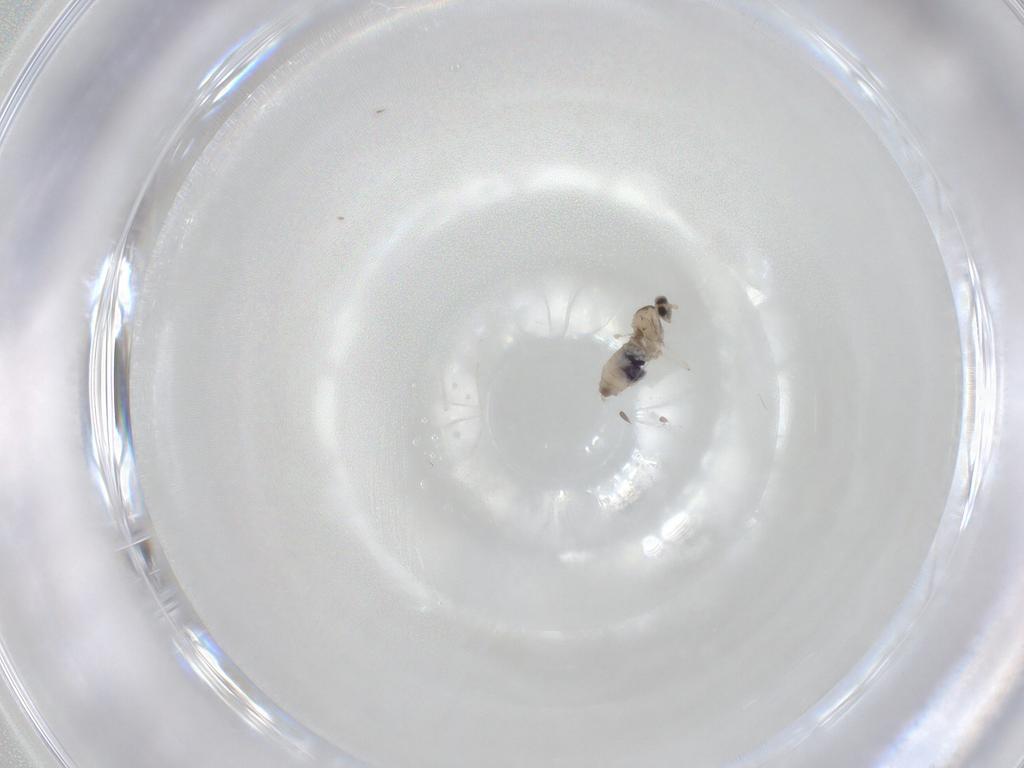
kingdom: Animalia
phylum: Arthropoda
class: Insecta
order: Diptera
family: Cecidomyiidae
